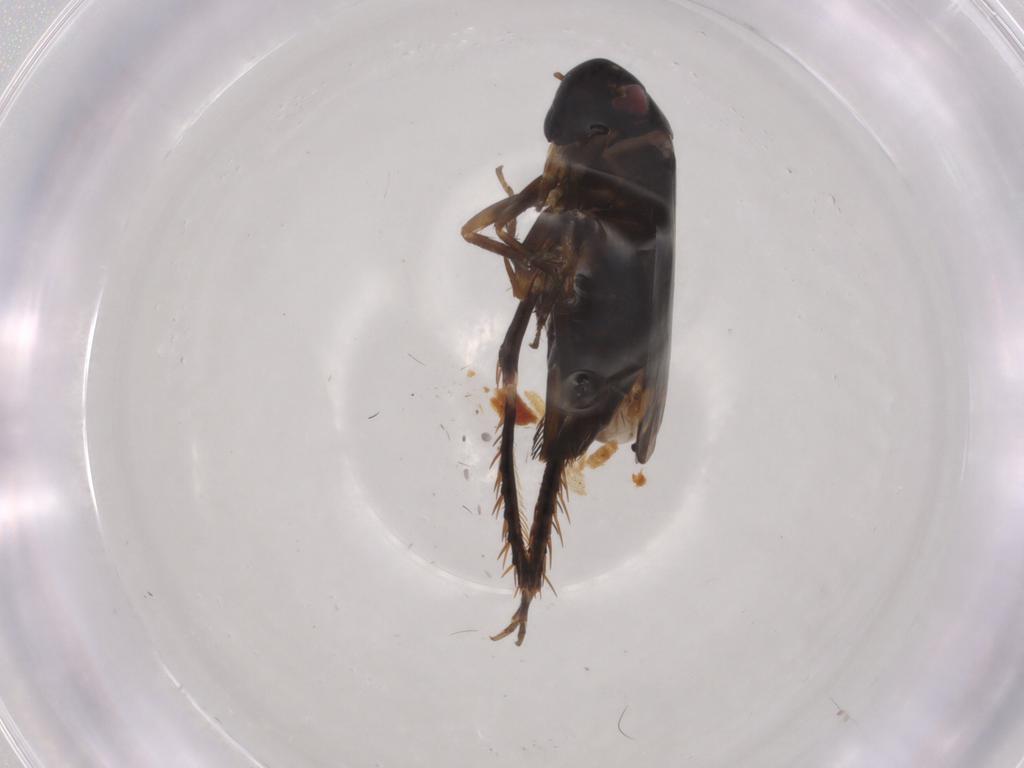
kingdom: Animalia
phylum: Arthropoda
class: Insecta
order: Hemiptera
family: Cicadellidae
